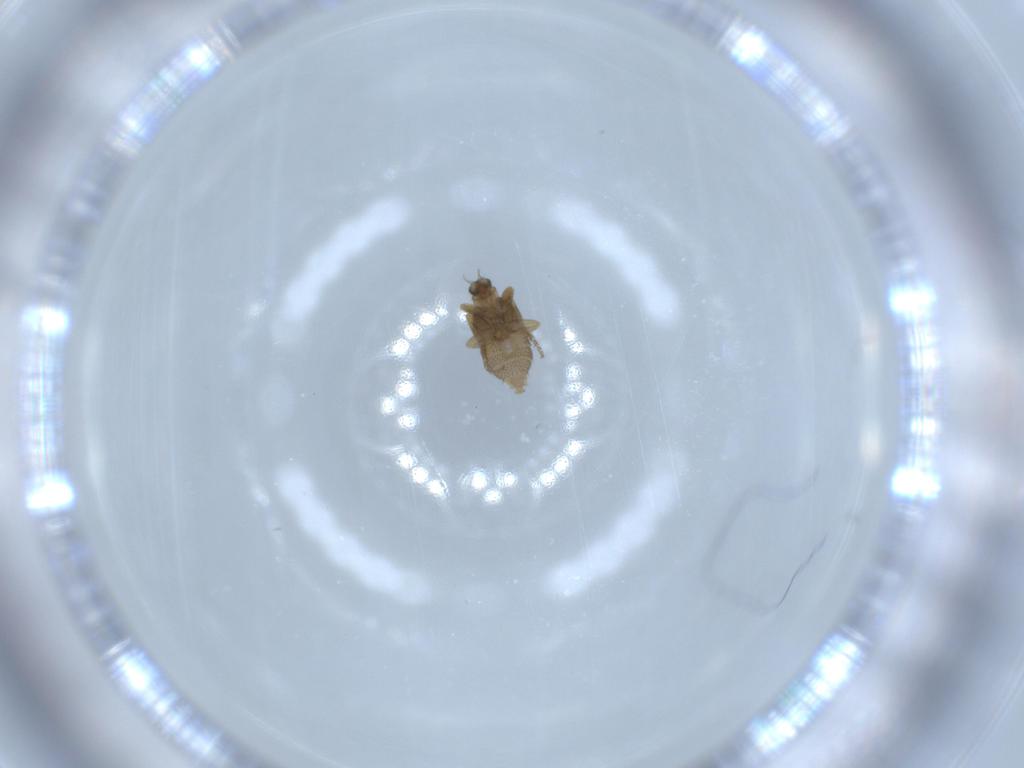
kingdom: Animalia
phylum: Arthropoda
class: Insecta
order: Diptera
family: Phoridae
